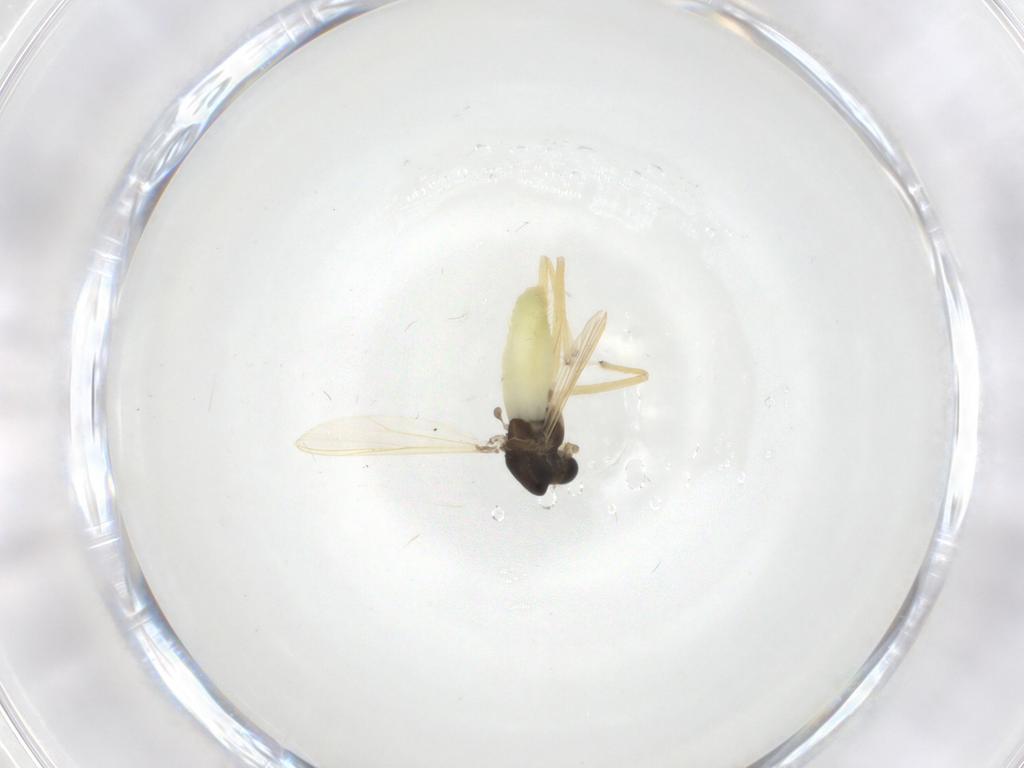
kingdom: Animalia
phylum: Arthropoda
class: Insecta
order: Diptera
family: Chironomidae
